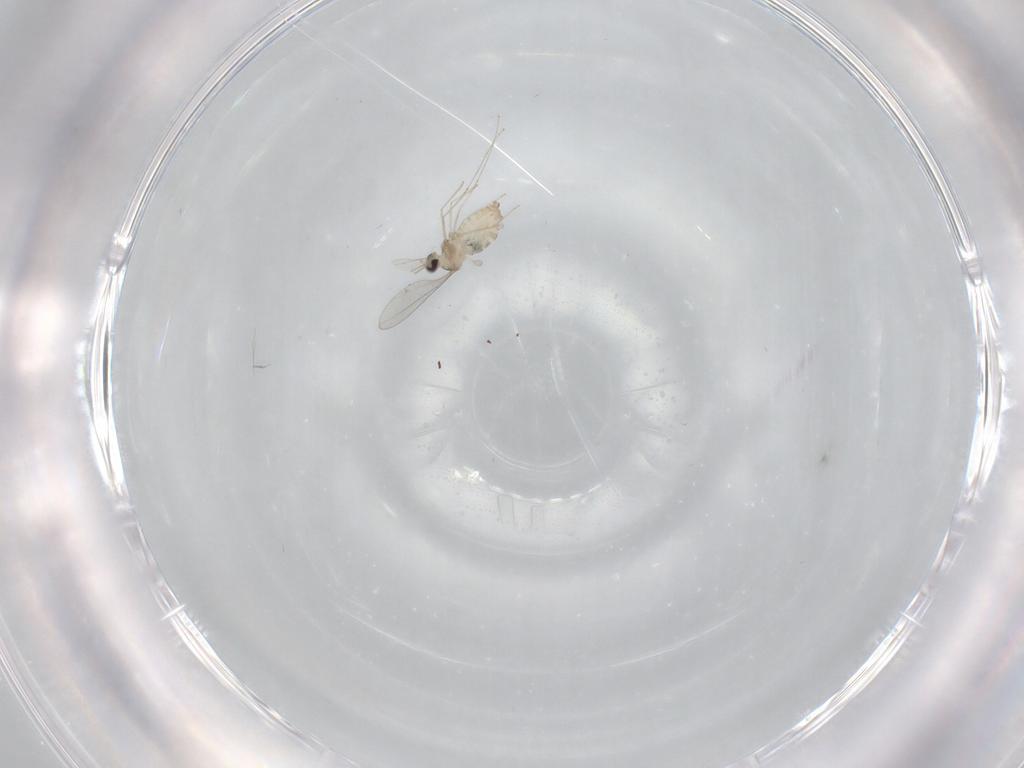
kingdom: Animalia
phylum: Arthropoda
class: Insecta
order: Diptera
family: Cecidomyiidae
